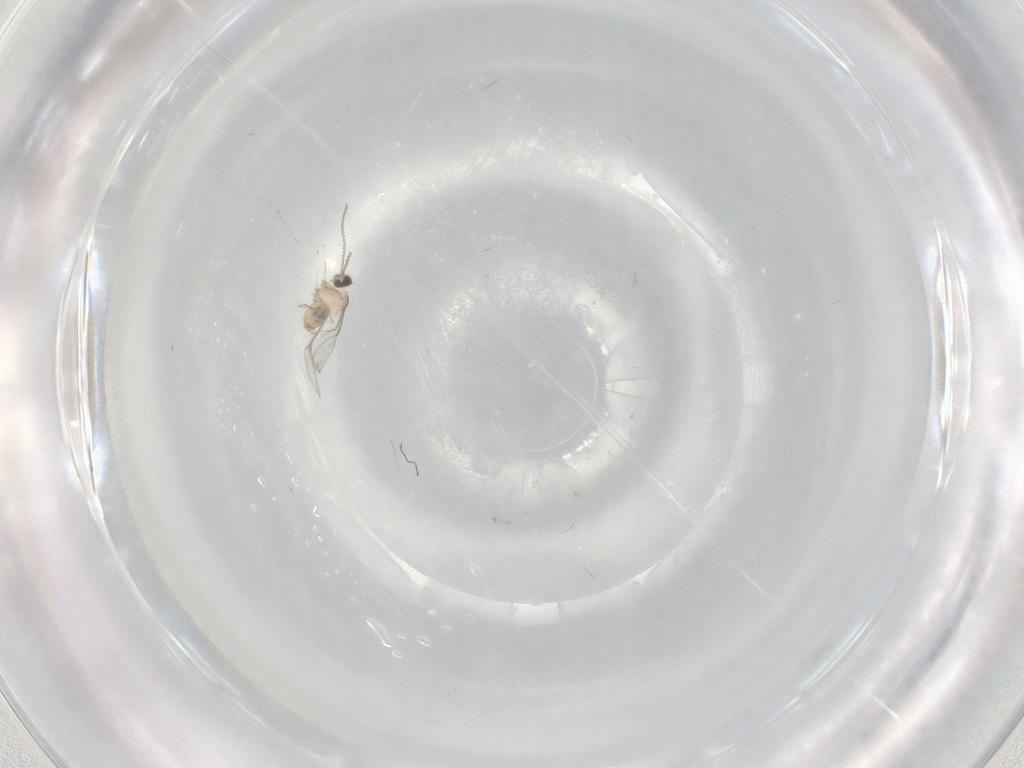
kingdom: Animalia
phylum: Arthropoda
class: Insecta
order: Diptera
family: Cecidomyiidae
